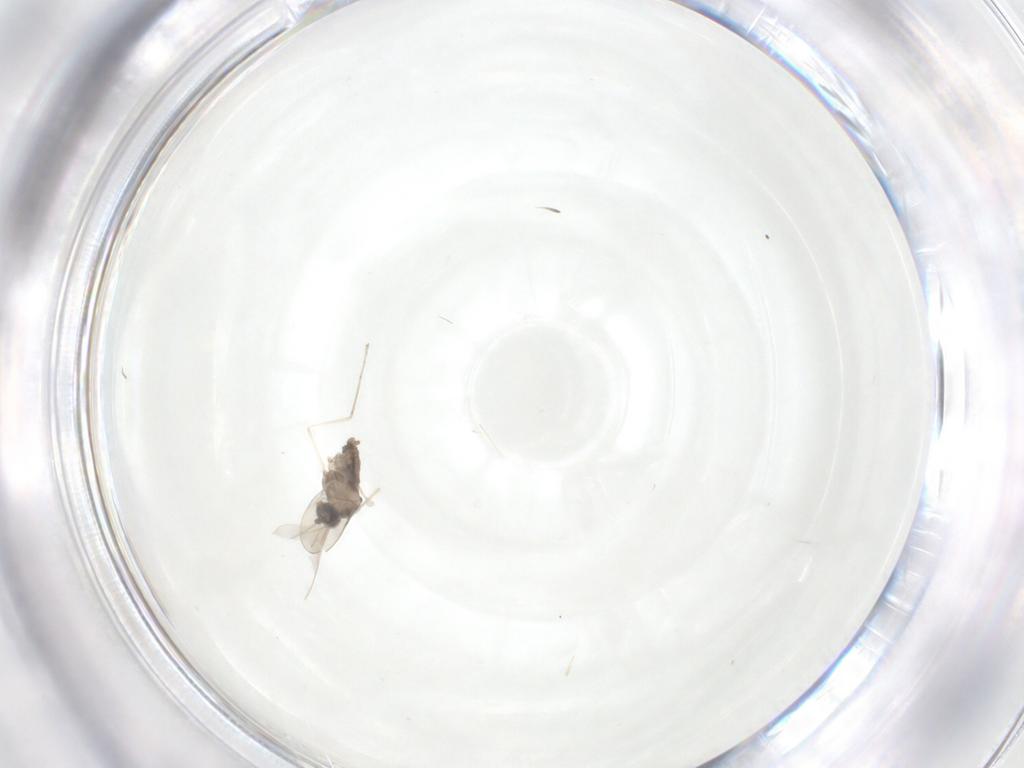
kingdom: Animalia
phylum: Arthropoda
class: Insecta
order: Diptera
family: Cecidomyiidae
